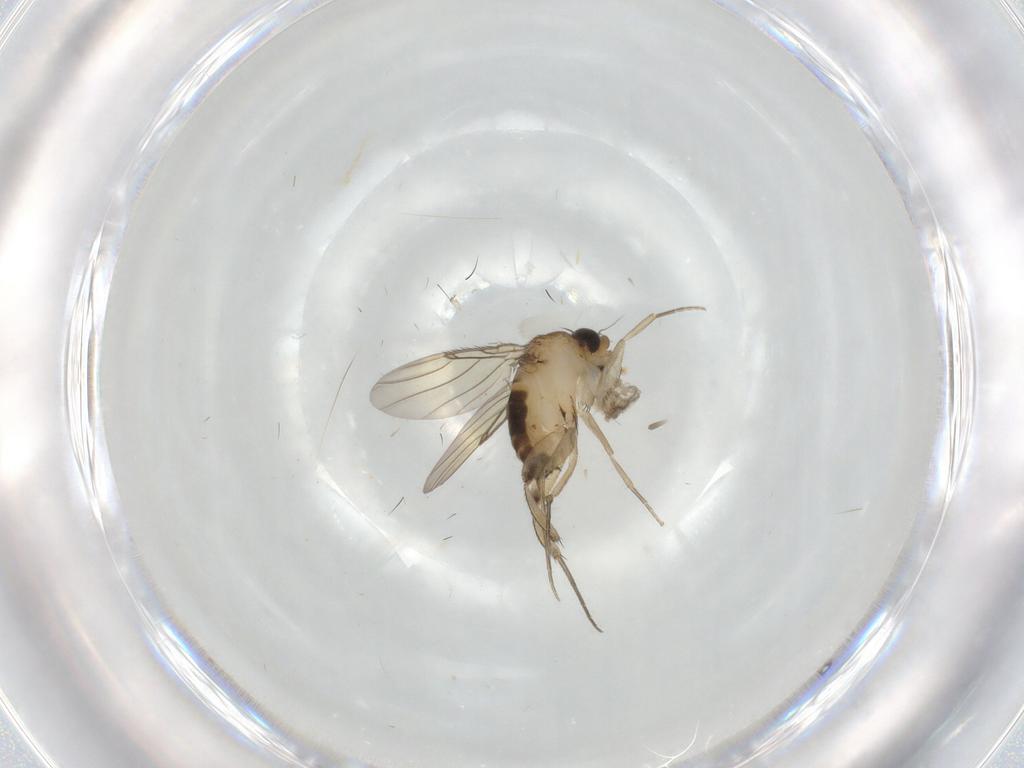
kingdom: Animalia
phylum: Arthropoda
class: Insecta
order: Diptera
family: Phoridae
